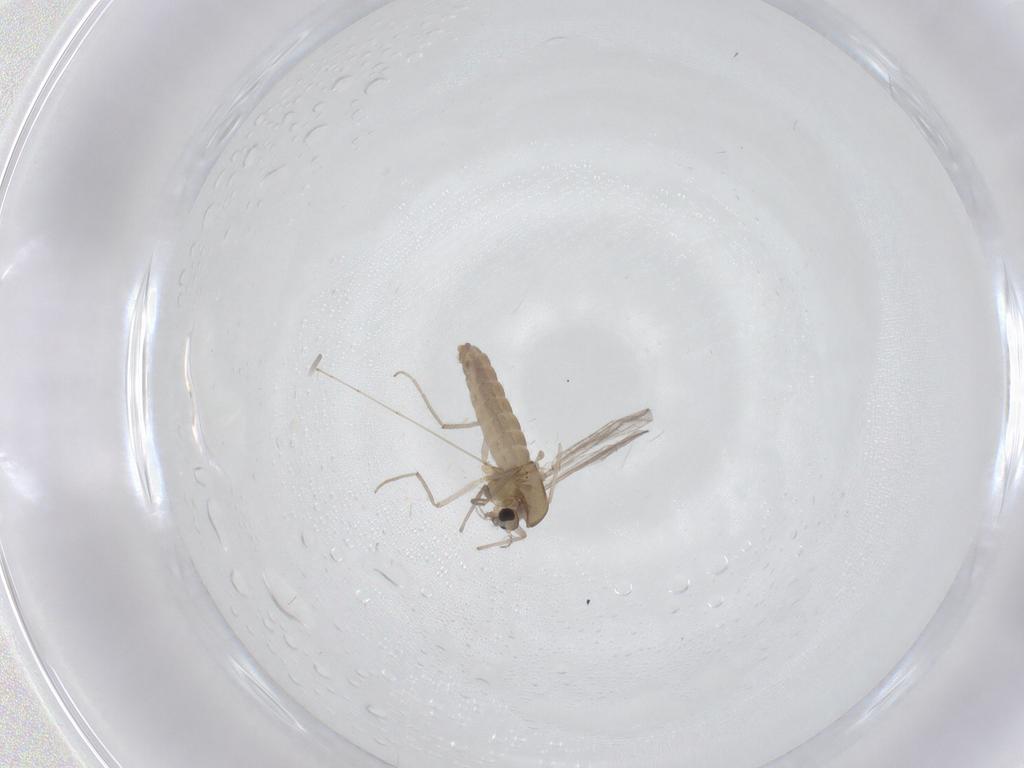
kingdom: Animalia
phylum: Arthropoda
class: Insecta
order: Diptera
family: Chironomidae
